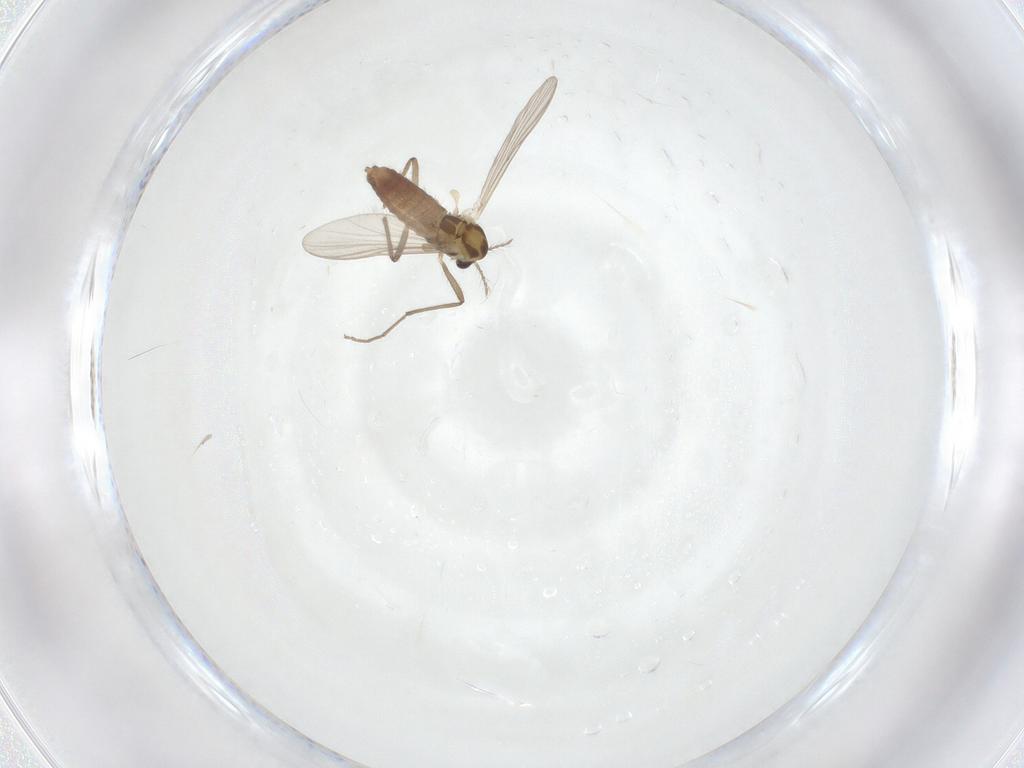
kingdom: Animalia
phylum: Arthropoda
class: Insecta
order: Diptera
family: Chironomidae
